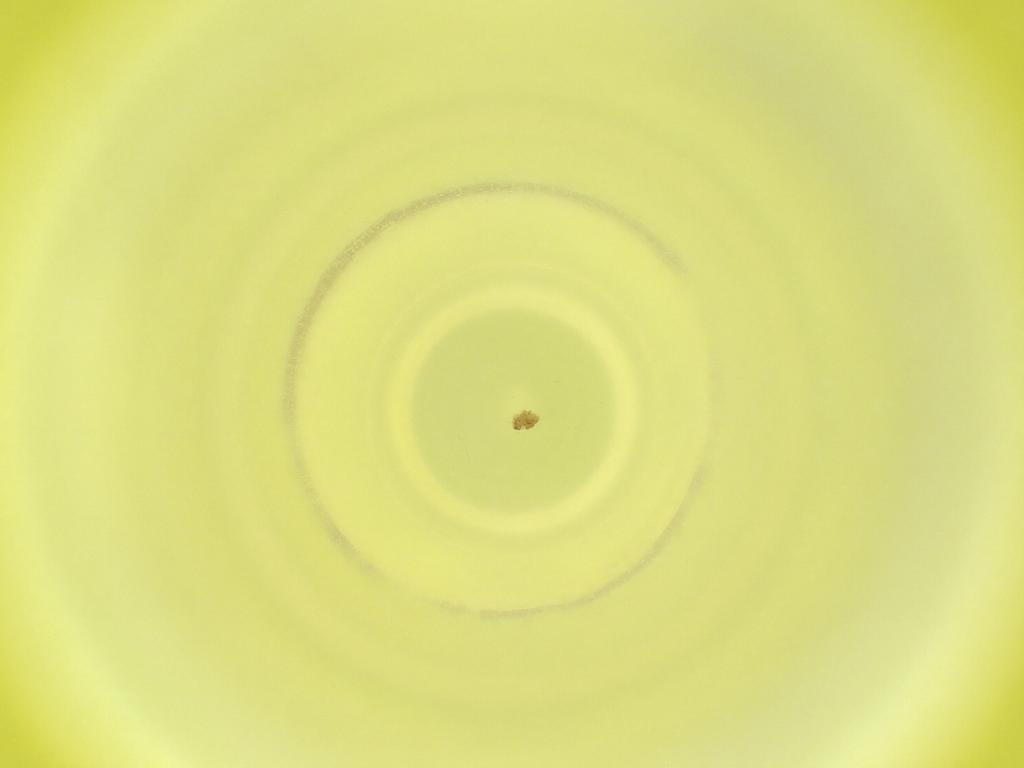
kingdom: Animalia
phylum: Arthropoda
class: Insecta
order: Diptera
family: Cecidomyiidae
